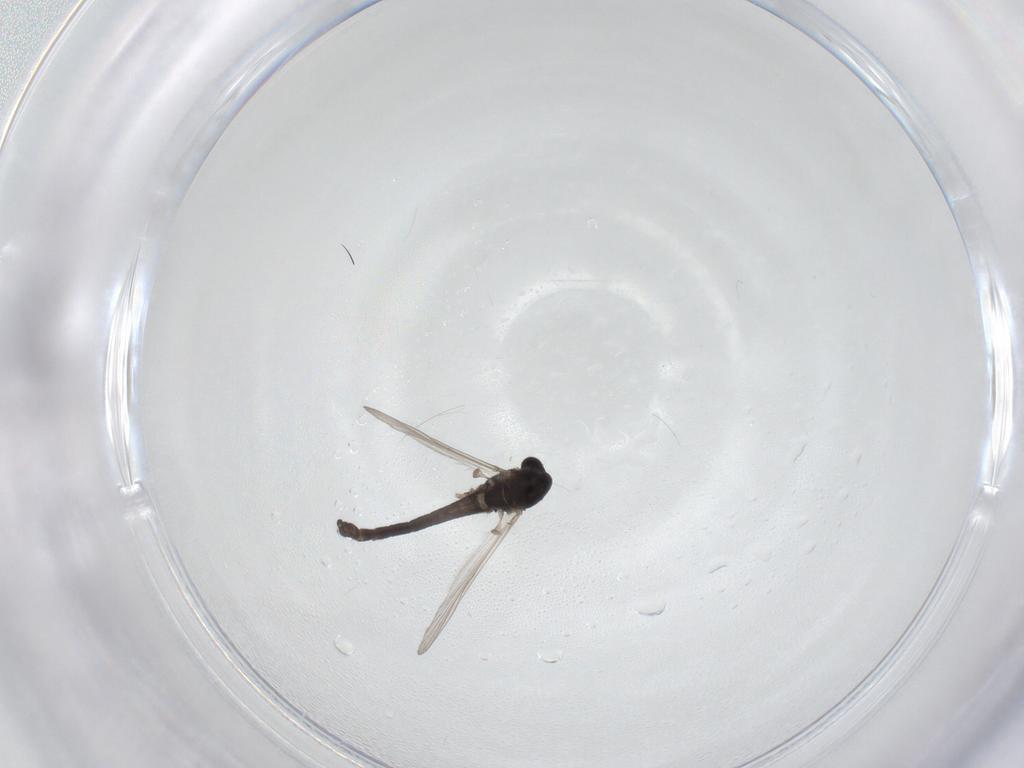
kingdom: Animalia
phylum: Arthropoda
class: Insecta
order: Diptera
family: Chironomidae
